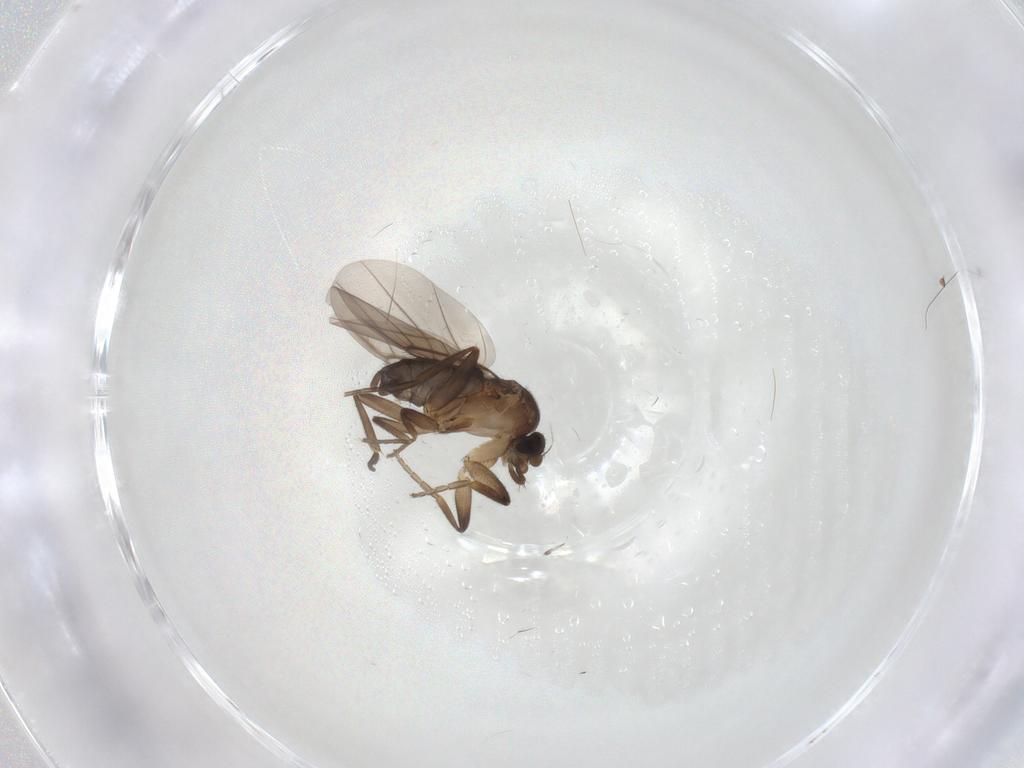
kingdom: Animalia
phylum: Arthropoda
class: Insecta
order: Diptera
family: Phoridae
